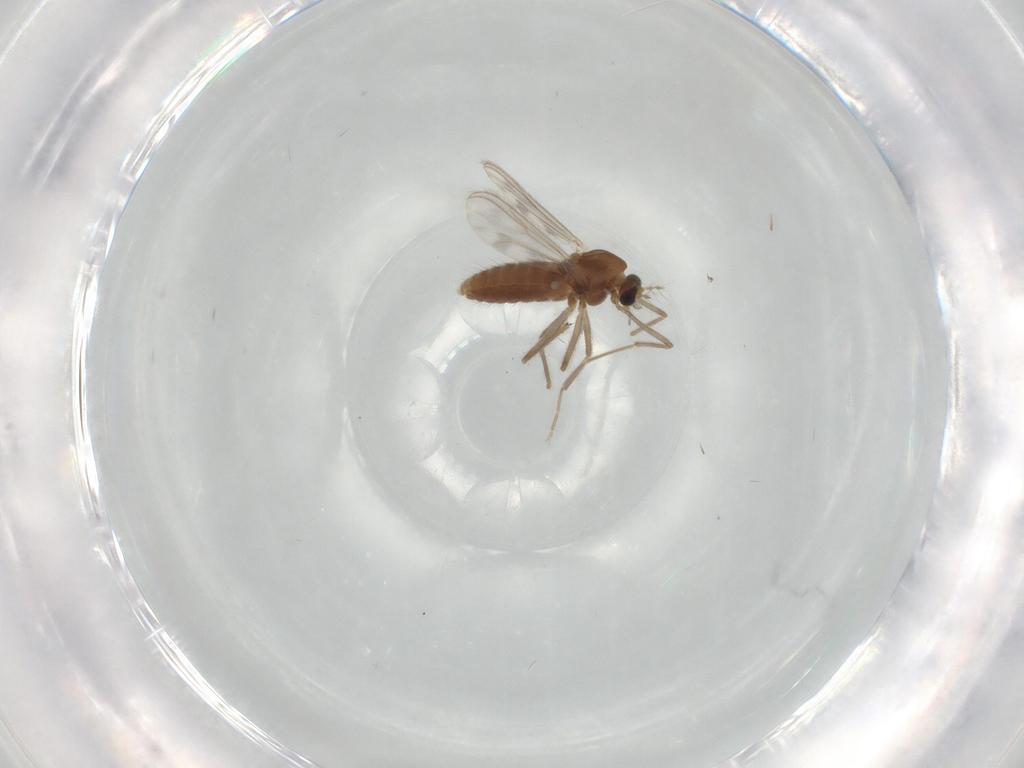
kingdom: Animalia
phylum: Arthropoda
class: Insecta
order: Diptera
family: Chironomidae
